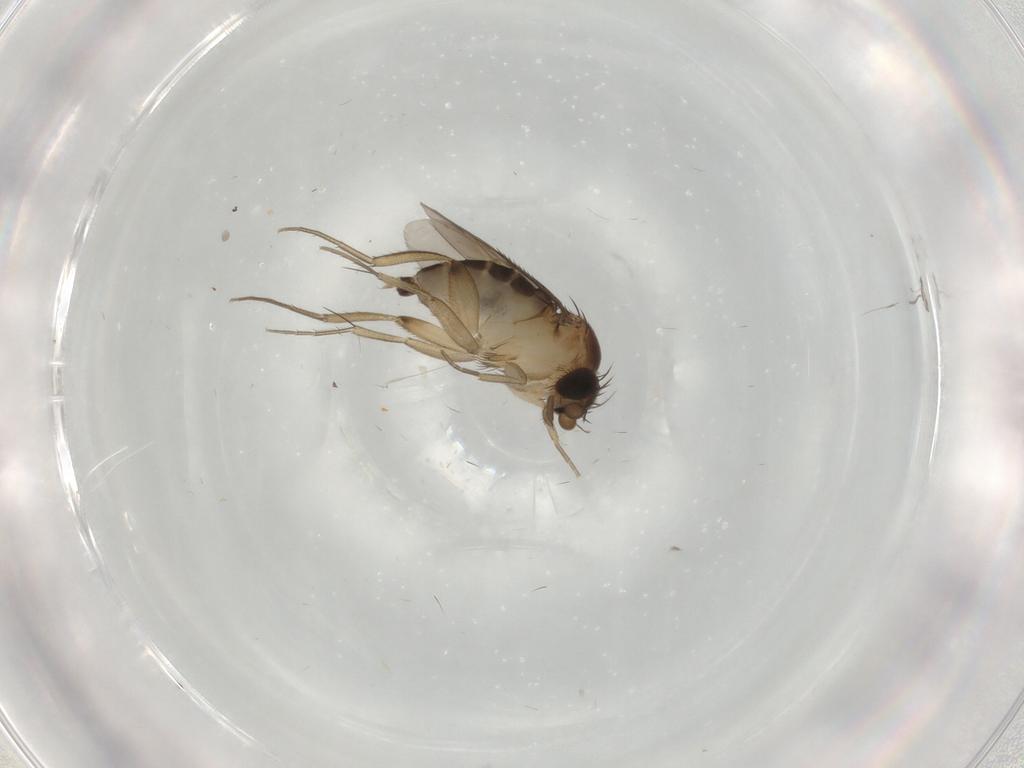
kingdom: Animalia
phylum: Arthropoda
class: Insecta
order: Diptera
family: Phoridae
